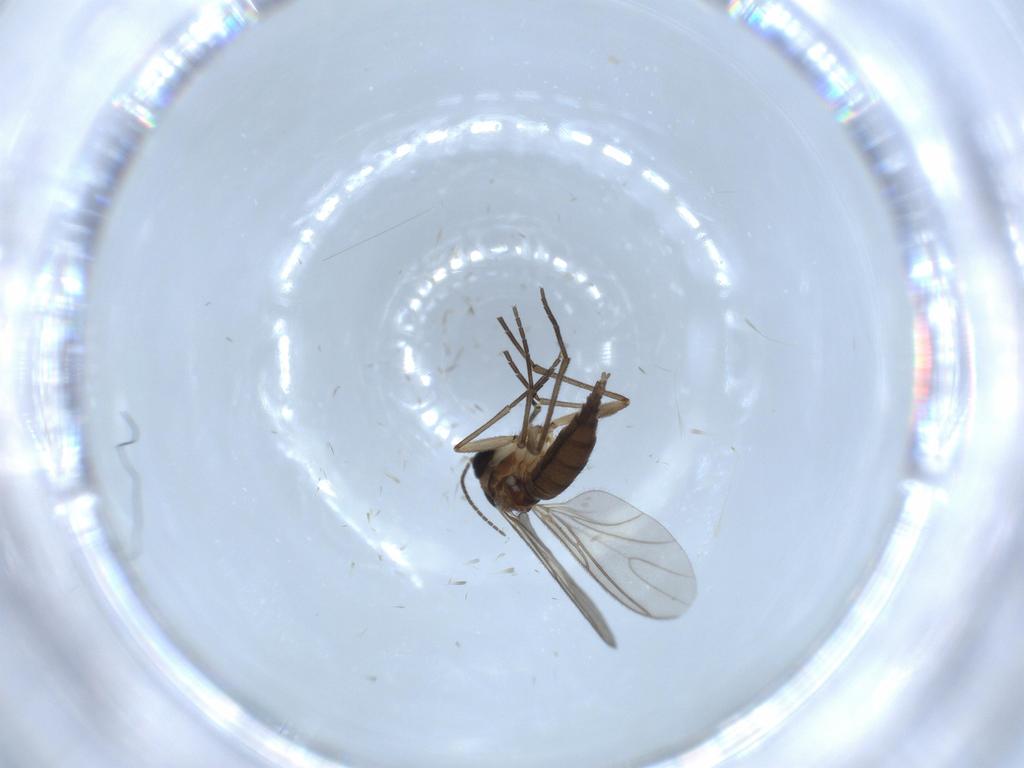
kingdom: Animalia
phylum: Arthropoda
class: Insecta
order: Diptera
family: Sciaridae
